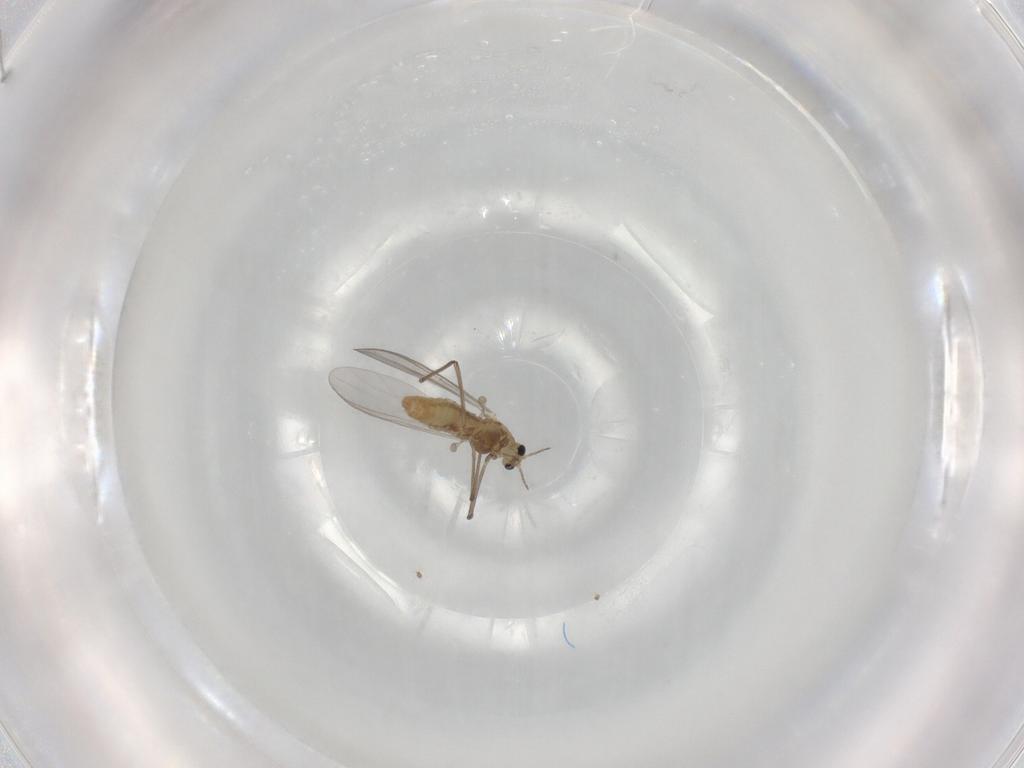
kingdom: Animalia
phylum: Arthropoda
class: Insecta
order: Diptera
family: Chironomidae
